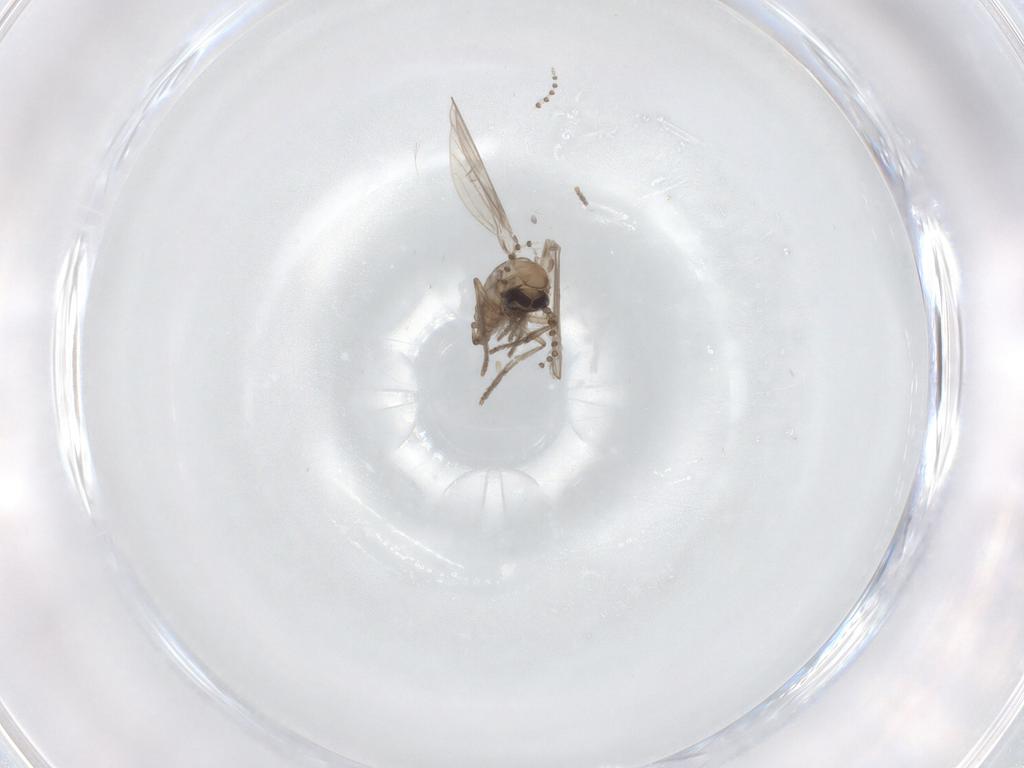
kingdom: Animalia
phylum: Arthropoda
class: Insecta
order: Diptera
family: Psychodidae
